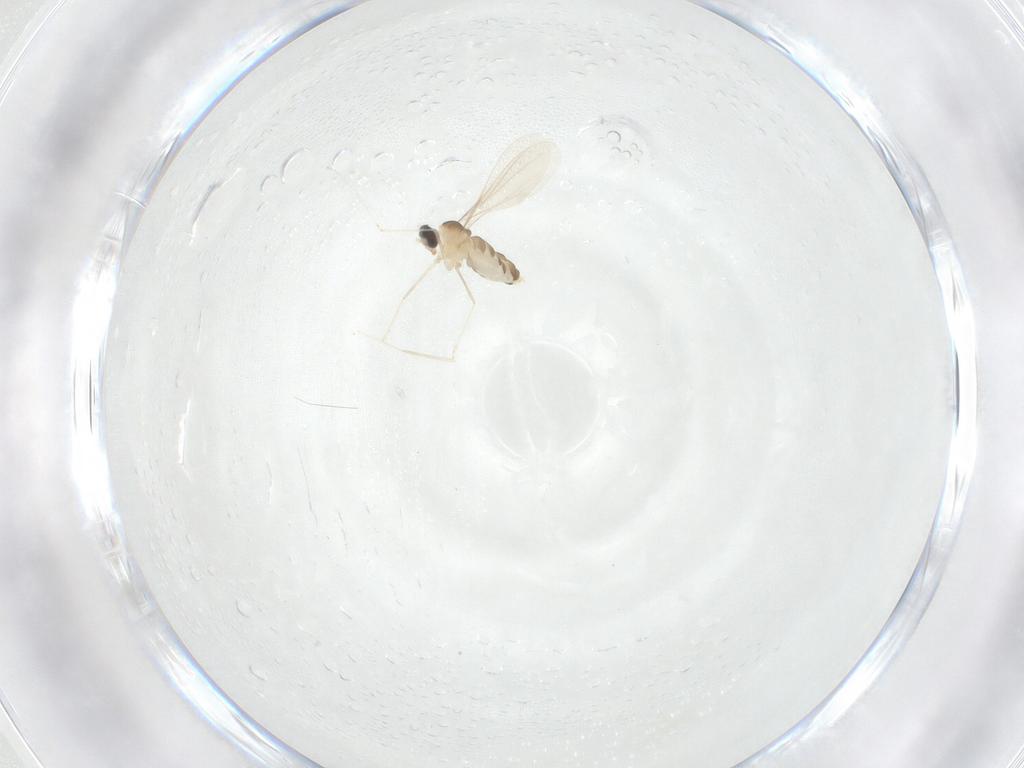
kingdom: Animalia
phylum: Arthropoda
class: Insecta
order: Diptera
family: Cecidomyiidae
